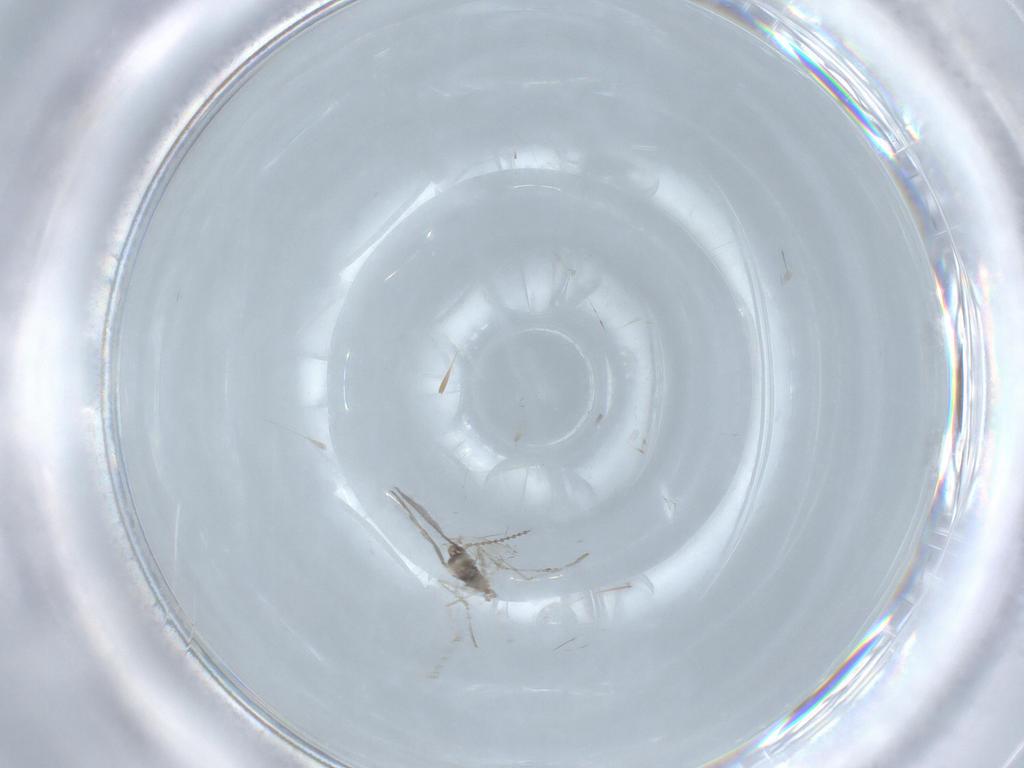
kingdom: Animalia
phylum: Arthropoda
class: Insecta
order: Diptera
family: Cecidomyiidae
